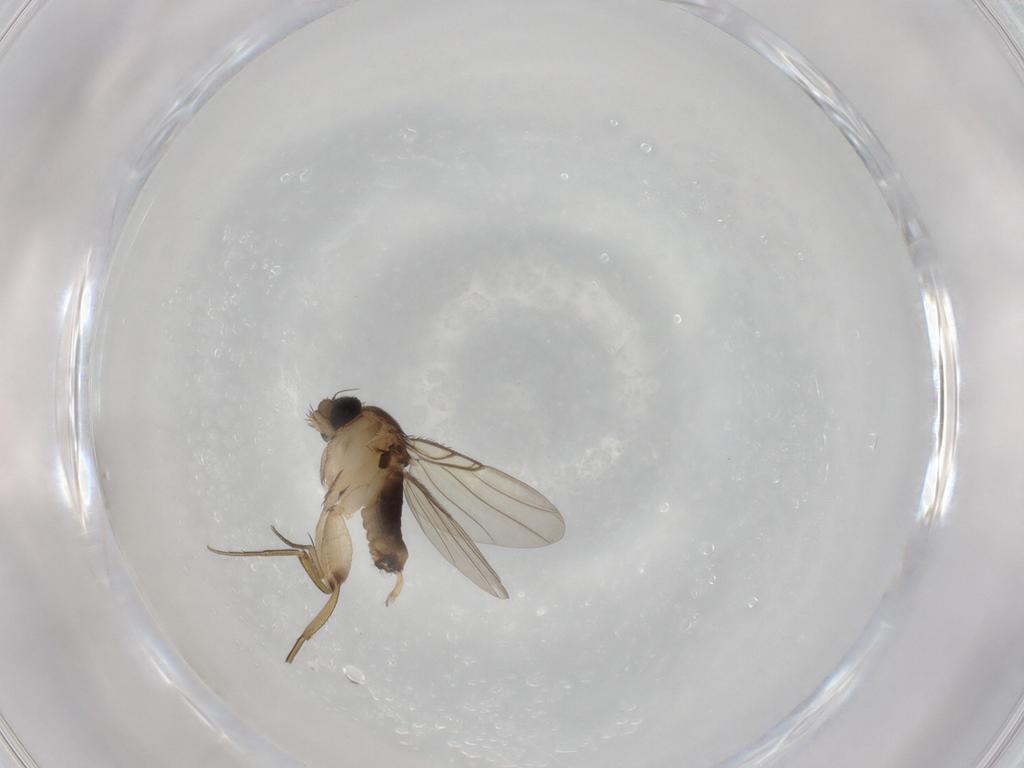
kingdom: Animalia
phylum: Arthropoda
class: Insecta
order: Diptera
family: Phoridae
